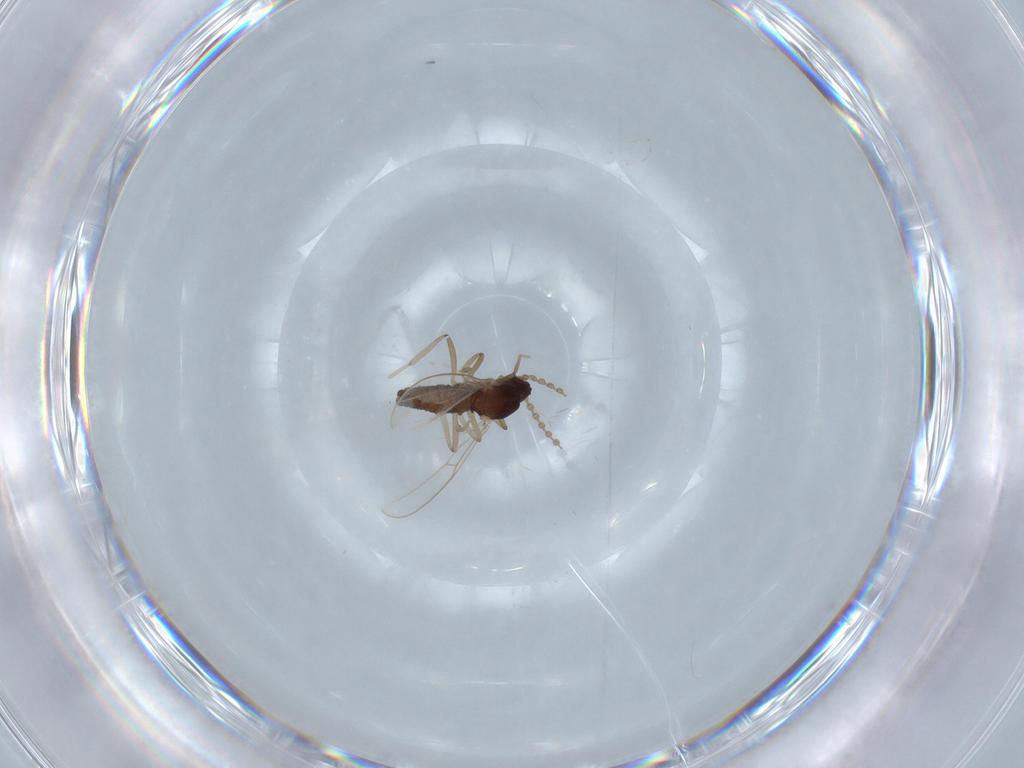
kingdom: Animalia
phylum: Arthropoda
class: Insecta
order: Diptera
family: Cecidomyiidae
